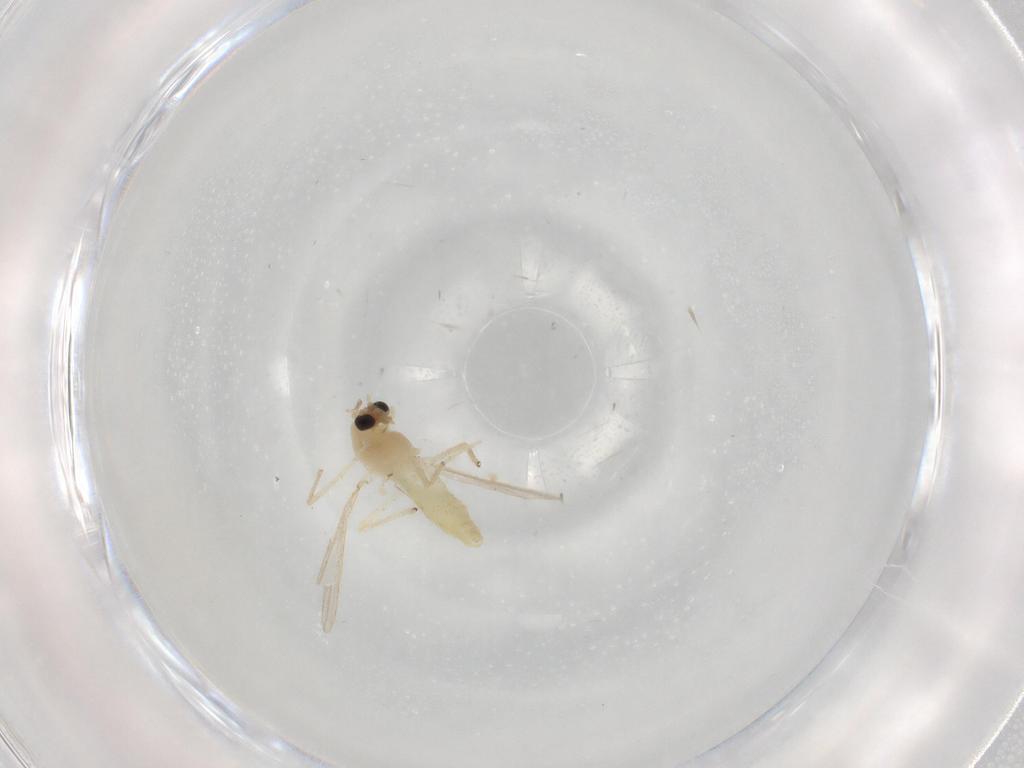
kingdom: Animalia
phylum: Arthropoda
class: Insecta
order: Diptera
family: Chironomidae
